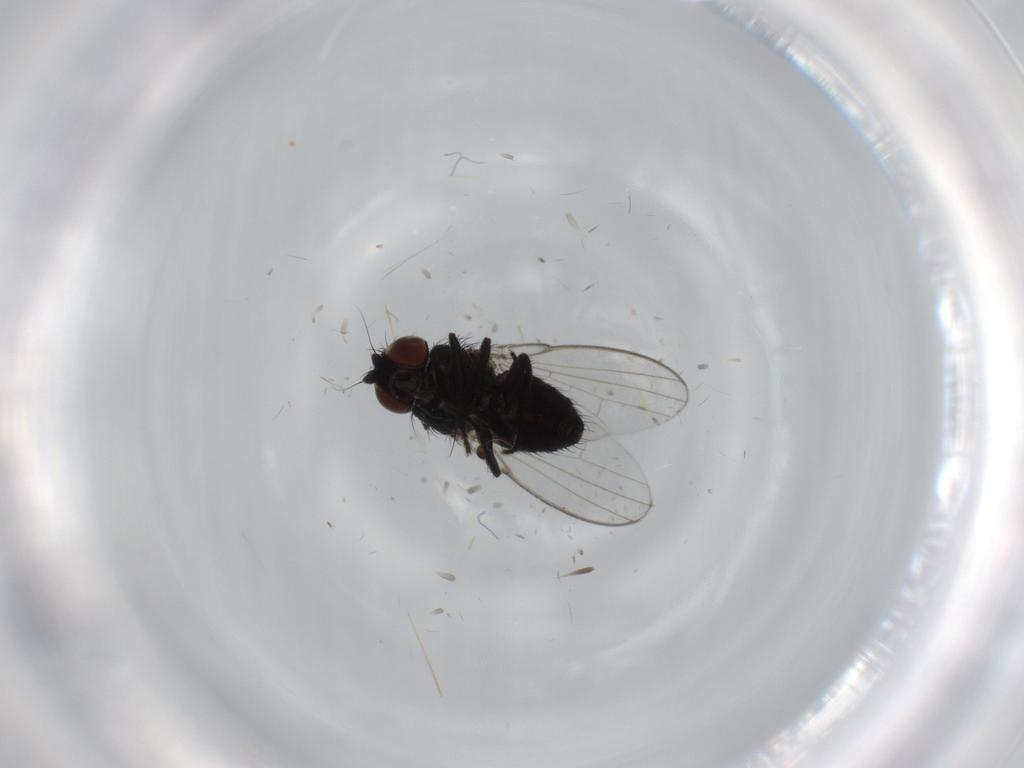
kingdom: Animalia
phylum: Arthropoda
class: Insecta
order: Diptera
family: Milichiidae
